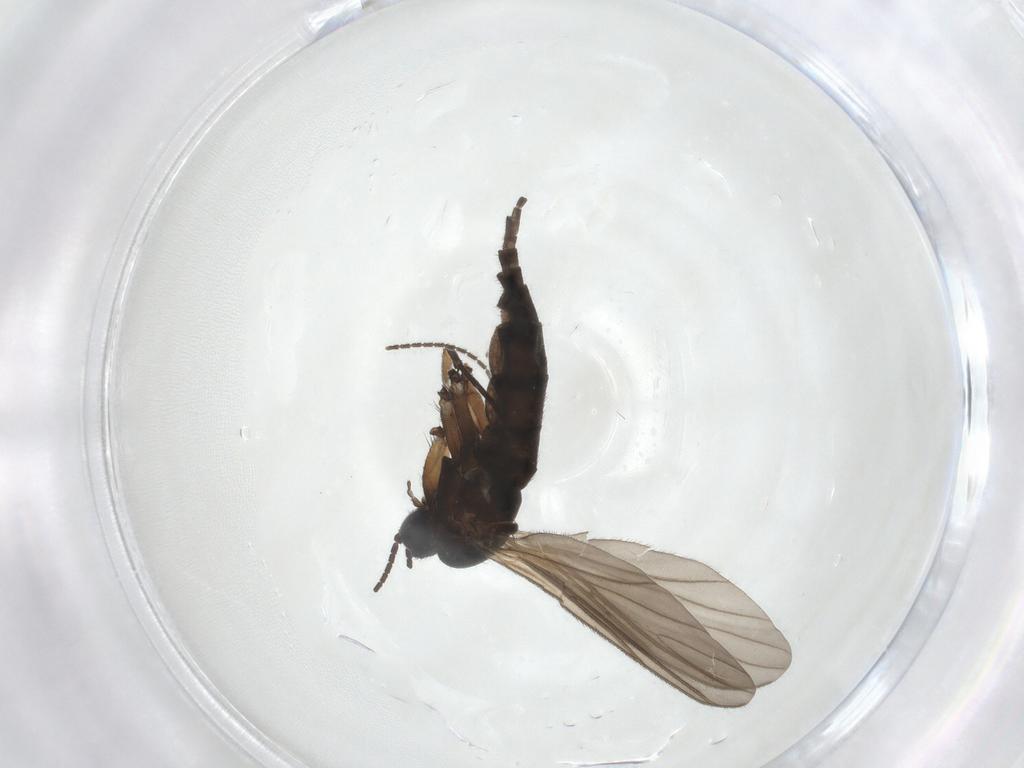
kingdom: Animalia
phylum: Arthropoda
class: Insecta
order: Diptera
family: Sciaridae
